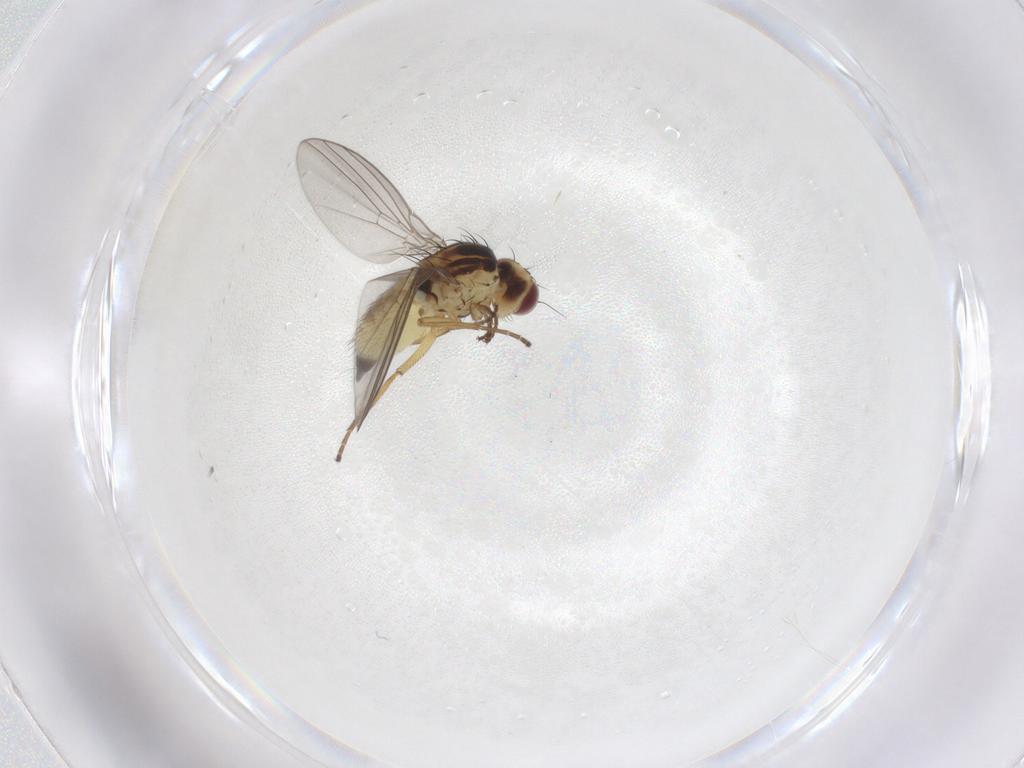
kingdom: Animalia
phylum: Arthropoda
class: Insecta
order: Diptera
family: Agromyzidae
